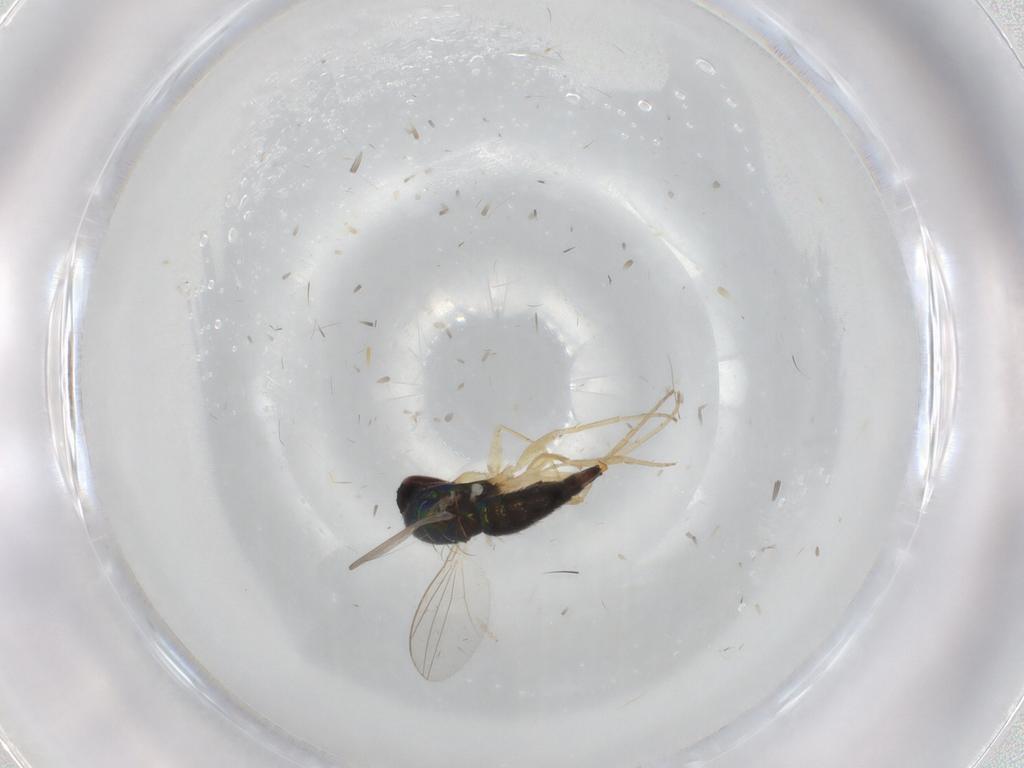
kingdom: Animalia
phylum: Arthropoda
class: Insecta
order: Diptera
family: Dolichopodidae
